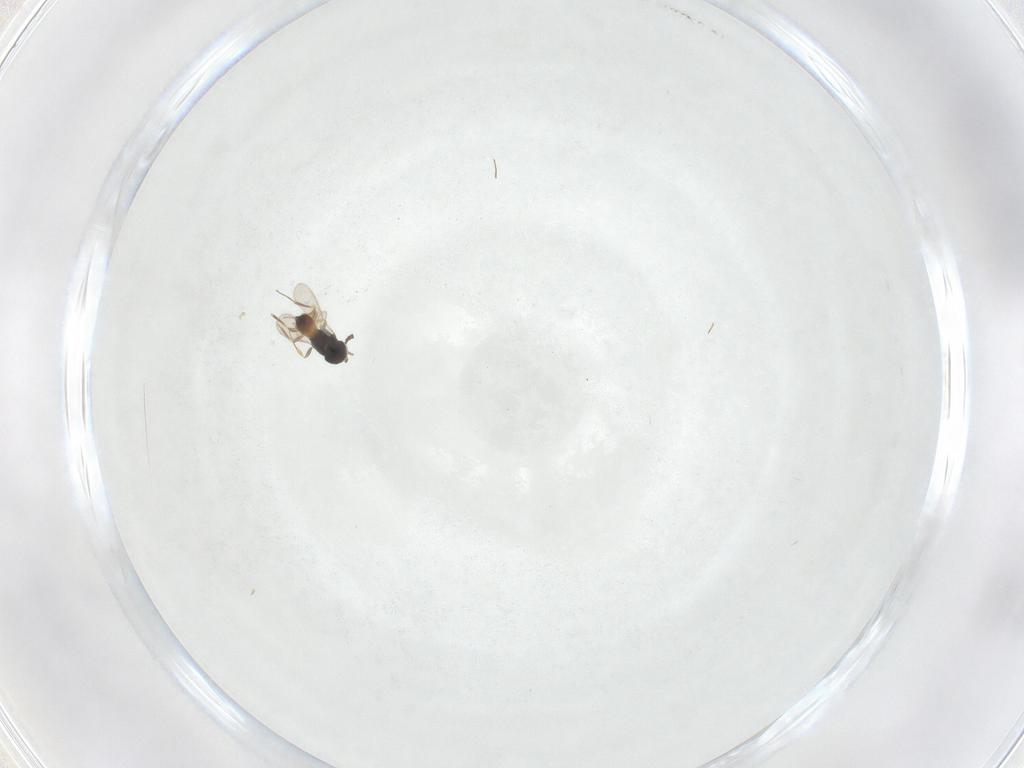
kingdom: Animalia
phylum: Arthropoda
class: Insecta
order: Hymenoptera
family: Scelionidae
